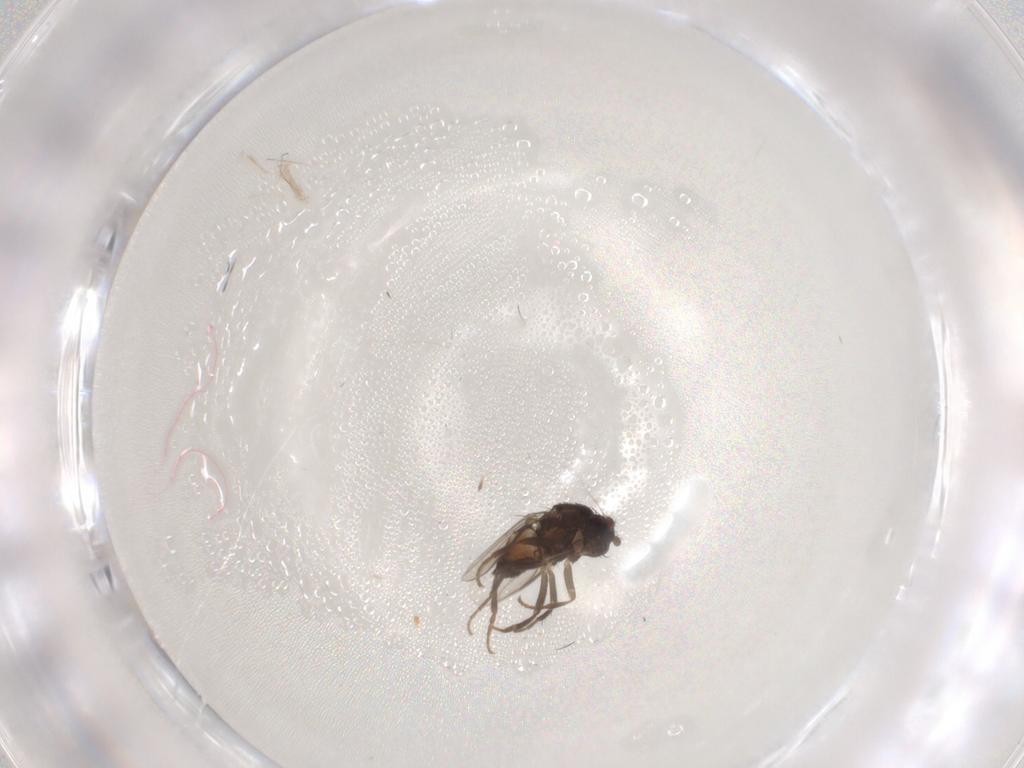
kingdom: Animalia
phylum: Arthropoda
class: Insecta
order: Diptera
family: Sphaeroceridae
